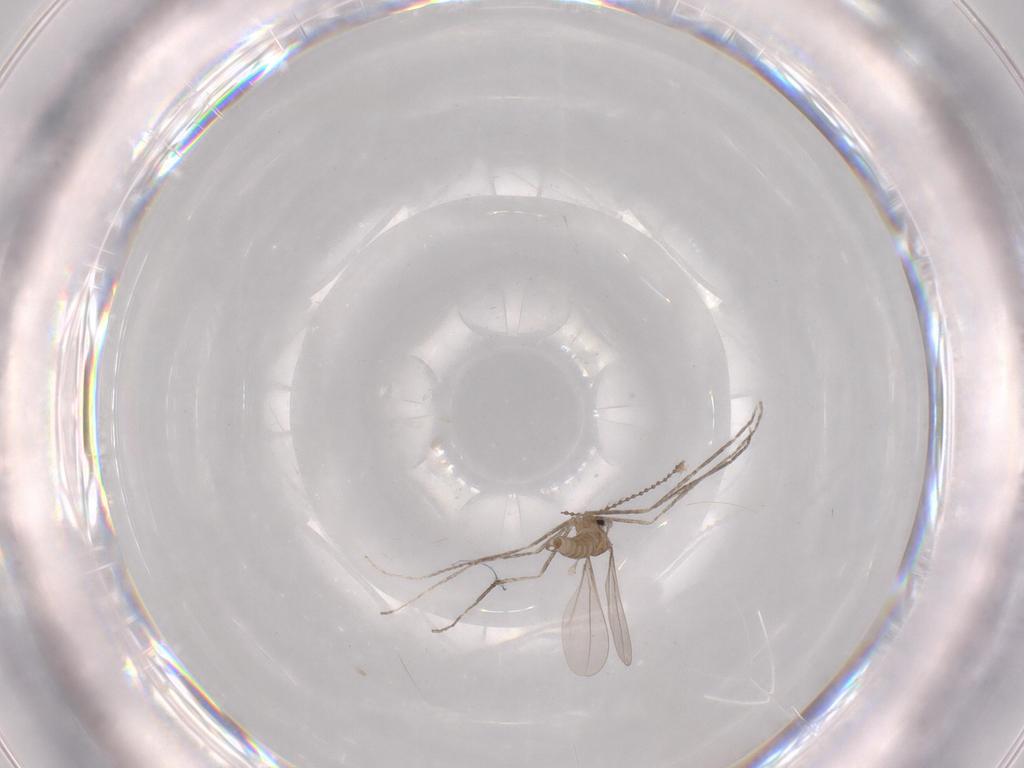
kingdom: Animalia
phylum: Arthropoda
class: Insecta
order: Diptera
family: Cecidomyiidae
